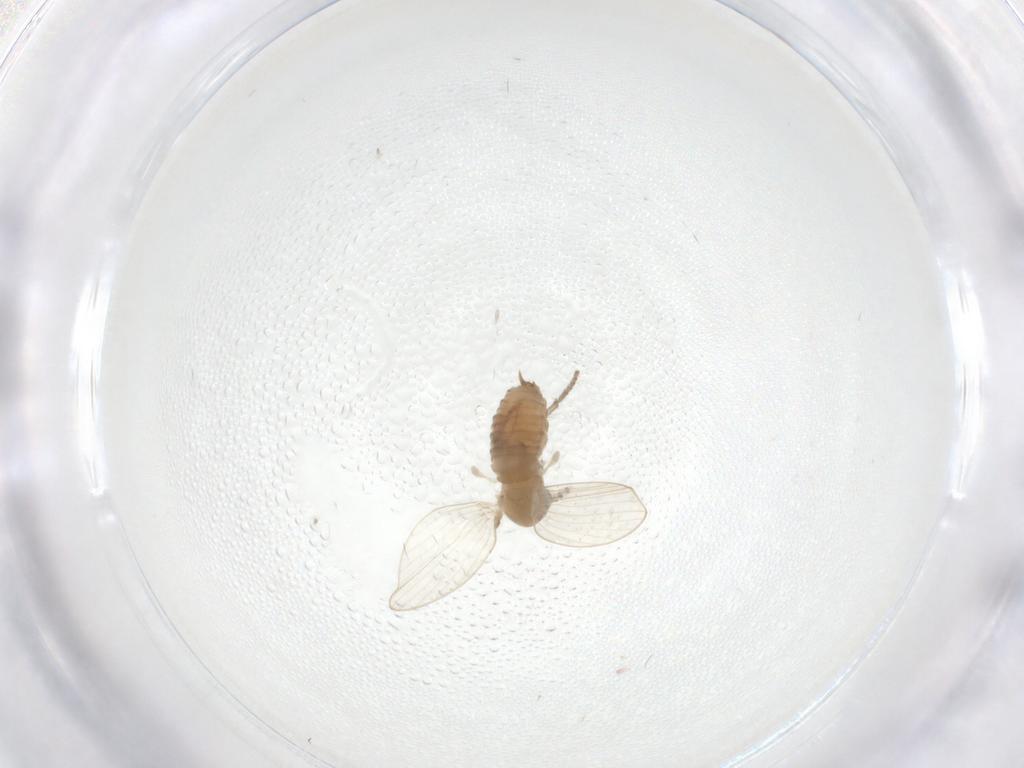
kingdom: Animalia
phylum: Arthropoda
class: Insecta
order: Diptera
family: Psychodidae
